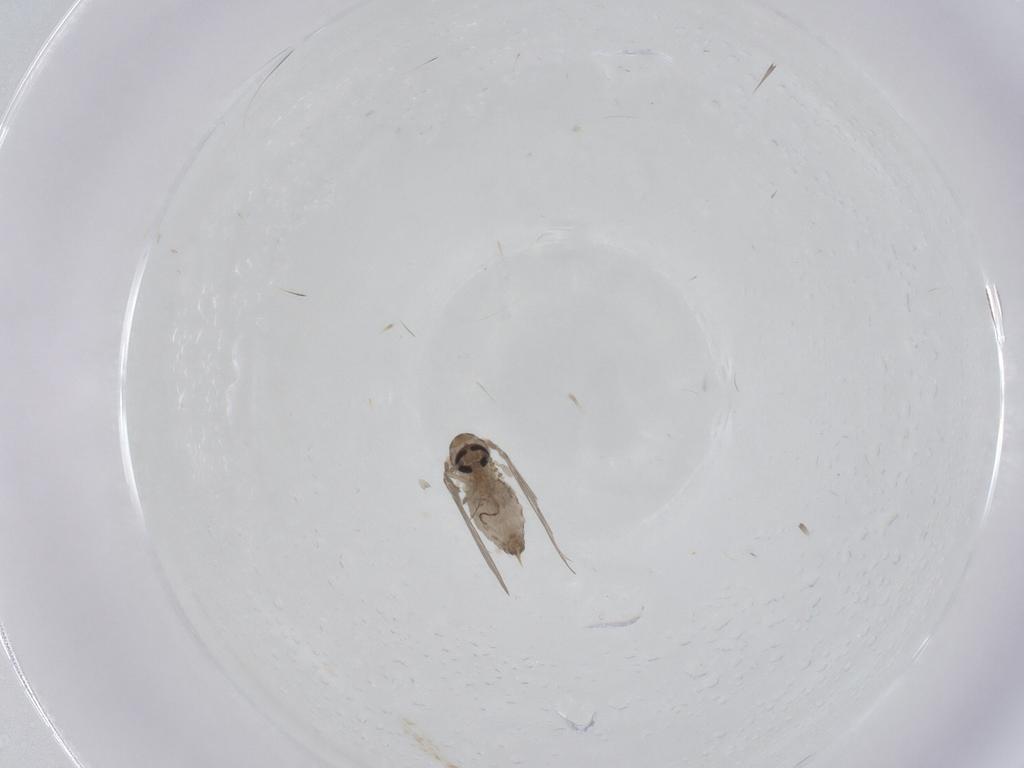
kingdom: Animalia
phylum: Arthropoda
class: Insecta
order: Diptera
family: Psychodidae
